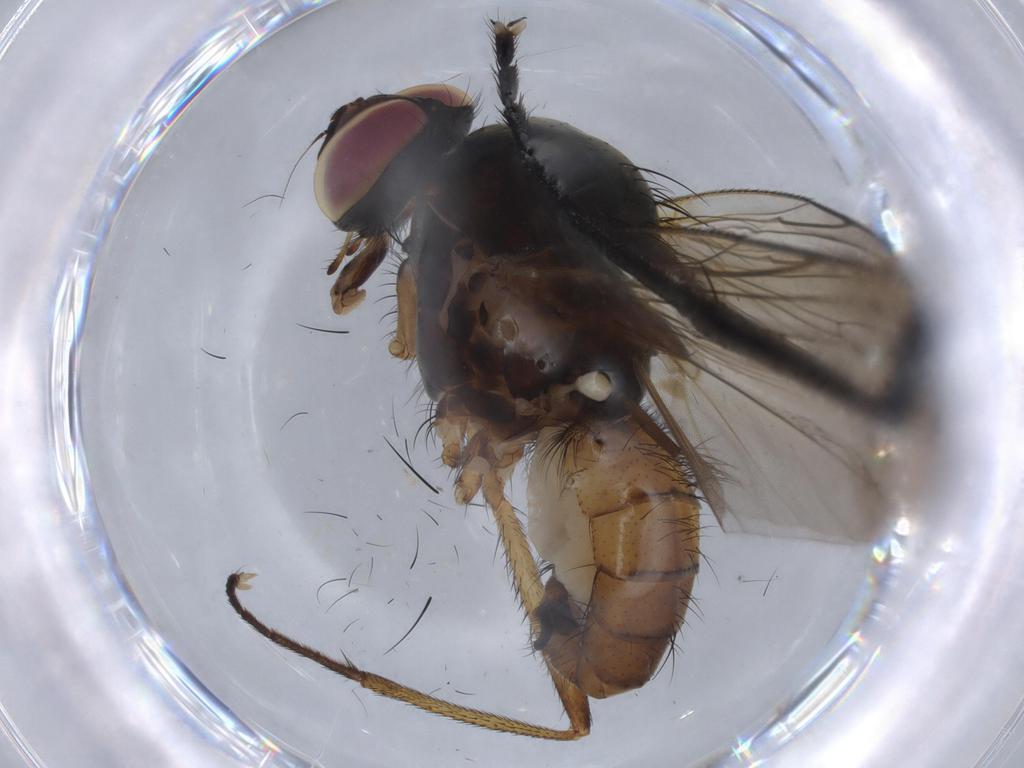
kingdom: Animalia
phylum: Arthropoda
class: Insecta
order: Diptera
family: Anthomyiidae
